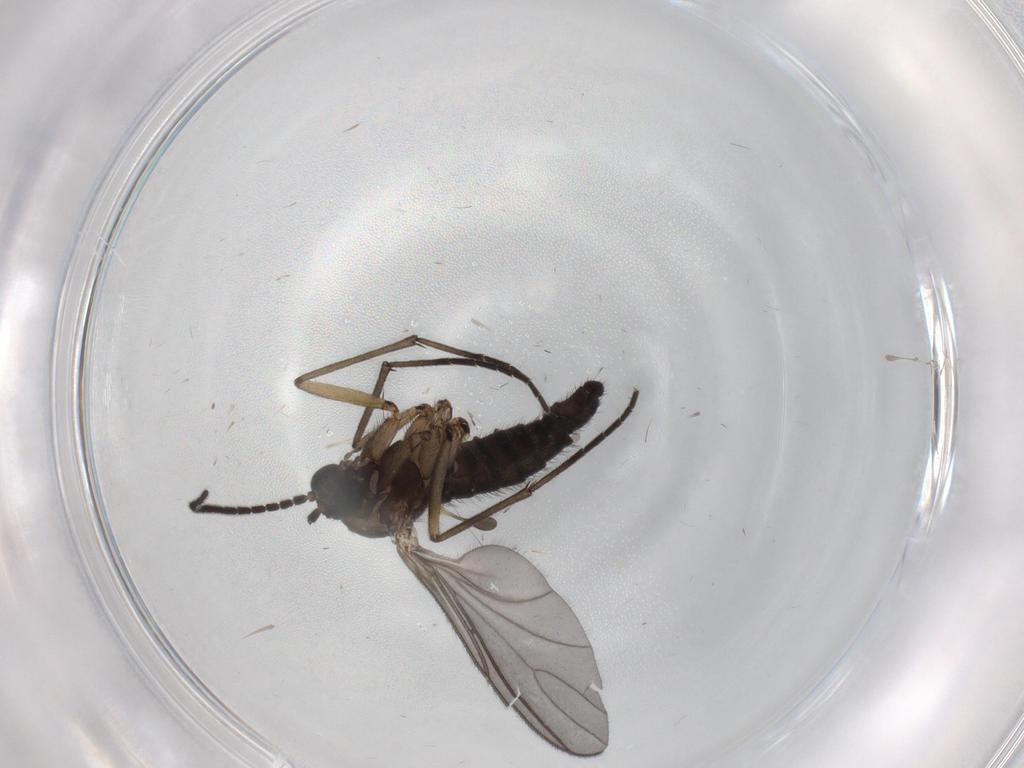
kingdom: Animalia
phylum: Arthropoda
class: Insecta
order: Diptera
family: Sciaridae
